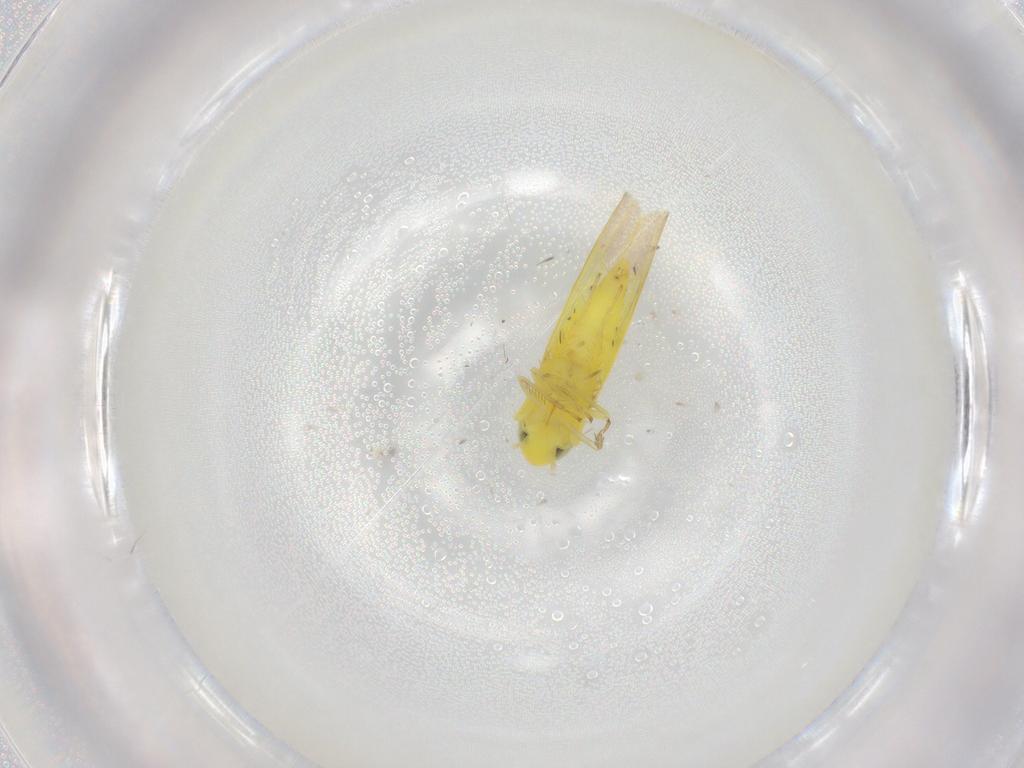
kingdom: Animalia
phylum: Arthropoda
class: Insecta
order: Hemiptera
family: Cicadellidae
